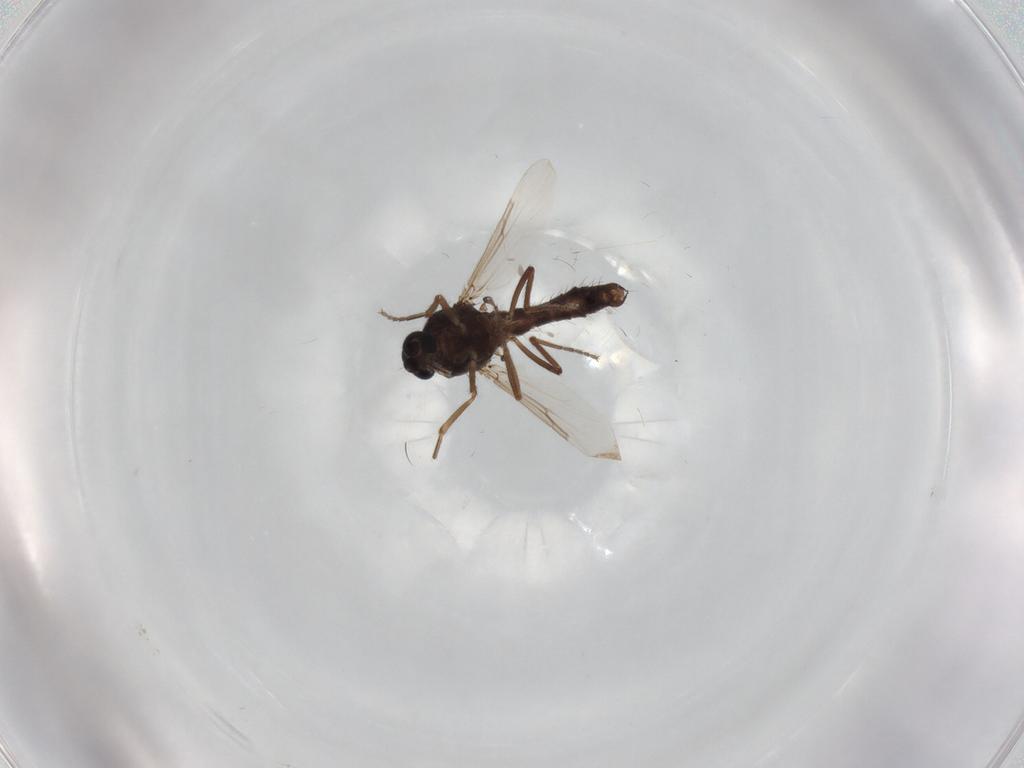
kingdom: Animalia
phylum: Arthropoda
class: Insecta
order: Diptera
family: Ceratopogonidae
